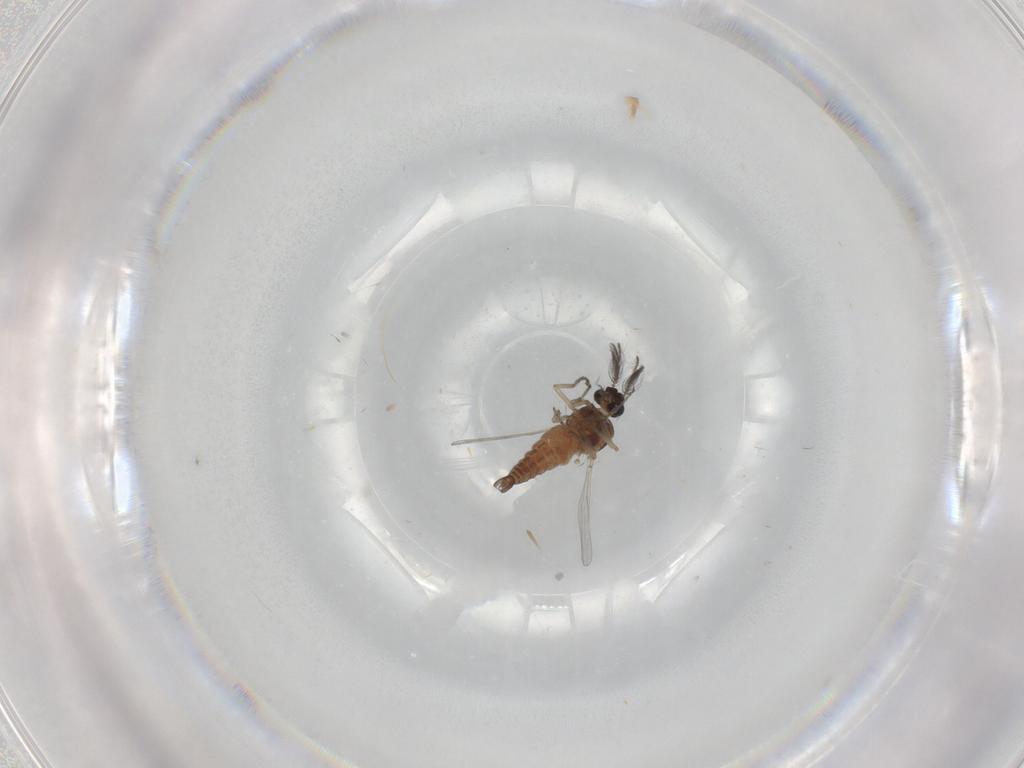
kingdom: Animalia
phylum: Arthropoda
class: Insecta
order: Diptera
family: Ceratopogonidae
